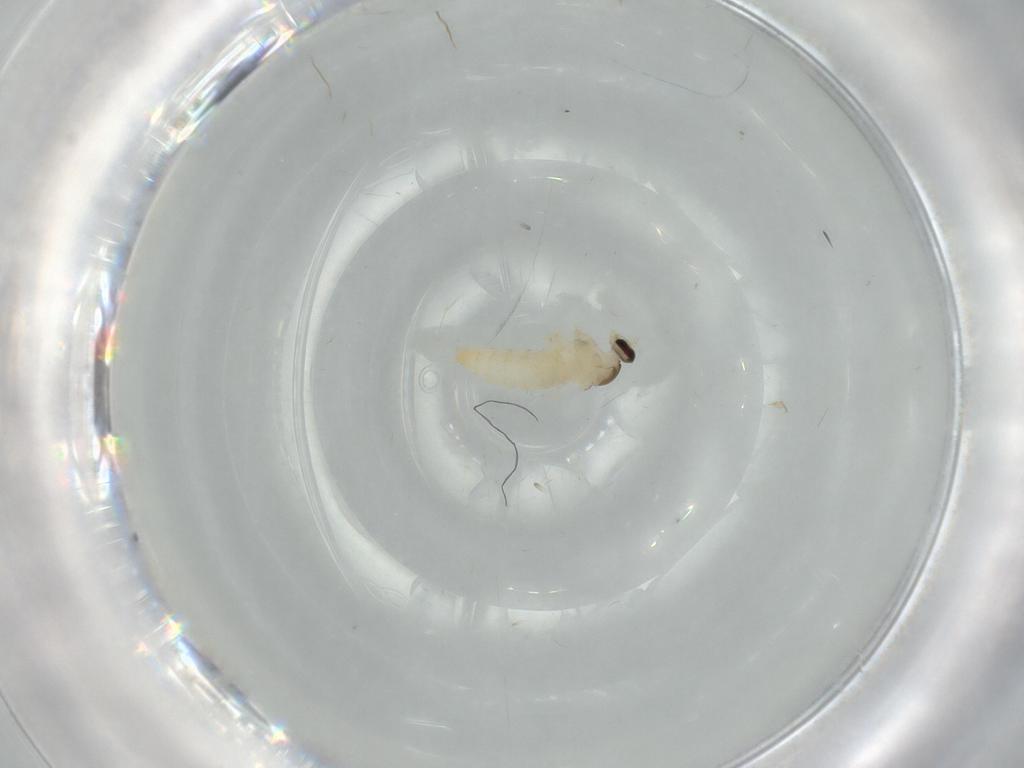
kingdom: Animalia
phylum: Arthropoda
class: Insecta
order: Diptera
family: Cecidomyiidae
